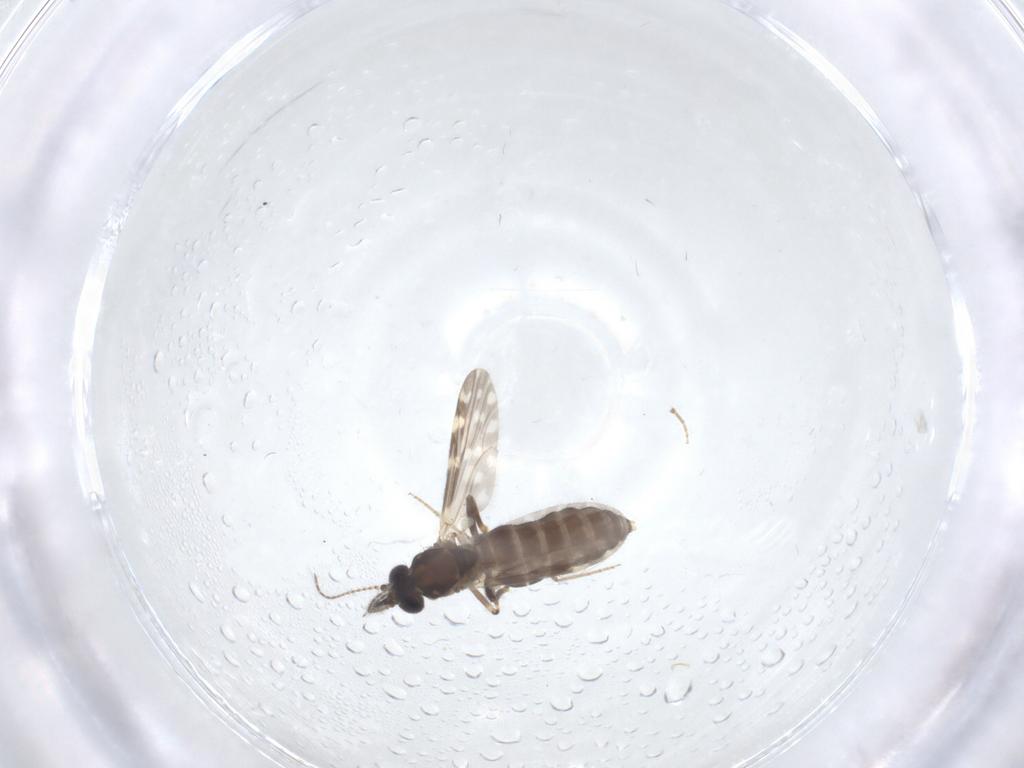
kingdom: Animalia
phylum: Arthropoda
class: Insecta
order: Diptera
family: Ceratopogonidae
